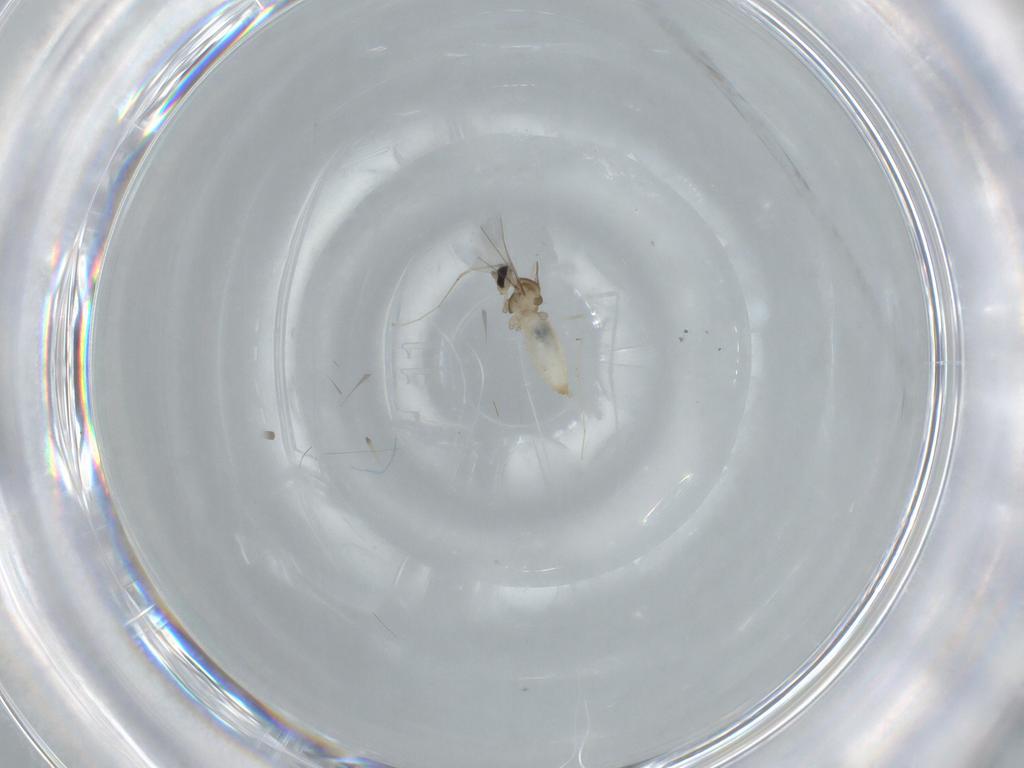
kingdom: Animalia
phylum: Arthropoda
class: Insecta
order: Diptera
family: Cecidomyiidae
